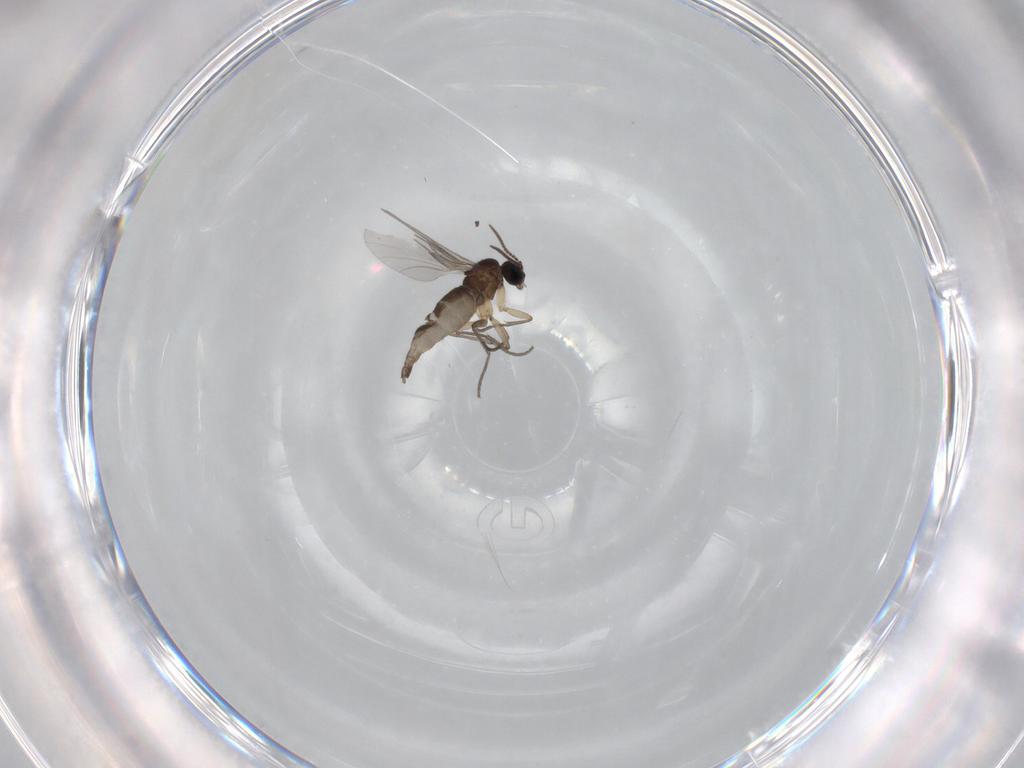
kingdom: Animalia
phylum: Arthropoda
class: Insecta
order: Diptera
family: Sciaridae
